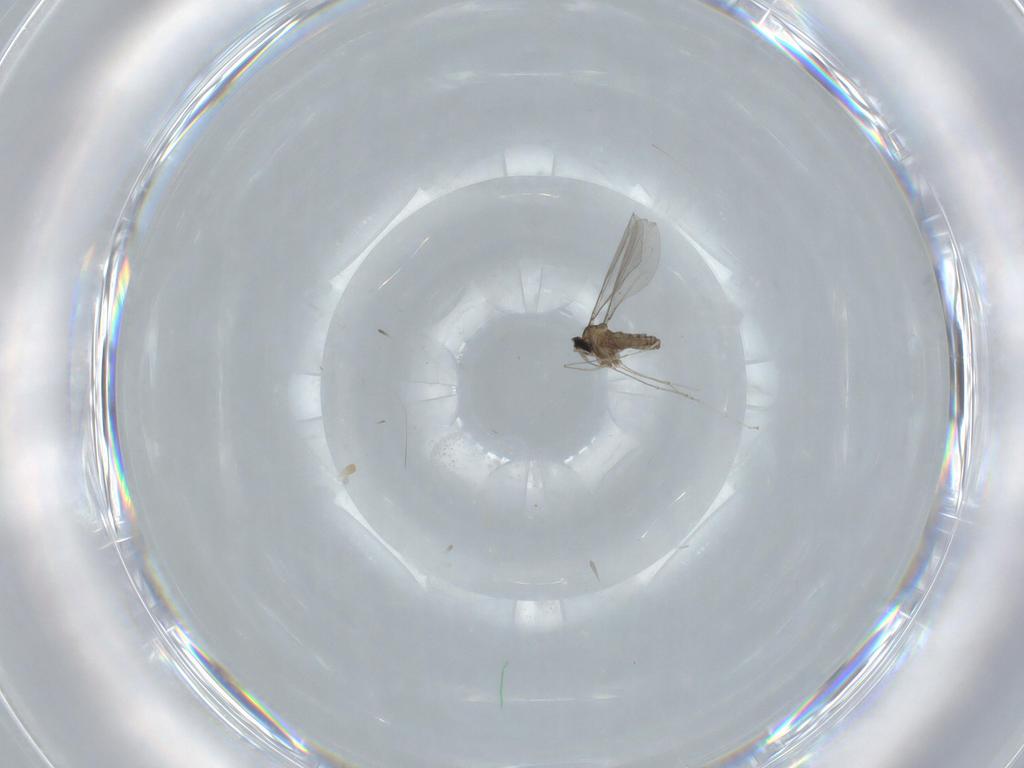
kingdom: Animalia
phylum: Arthropoda
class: Insecta
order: Diptera
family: Cecidomyiidae
